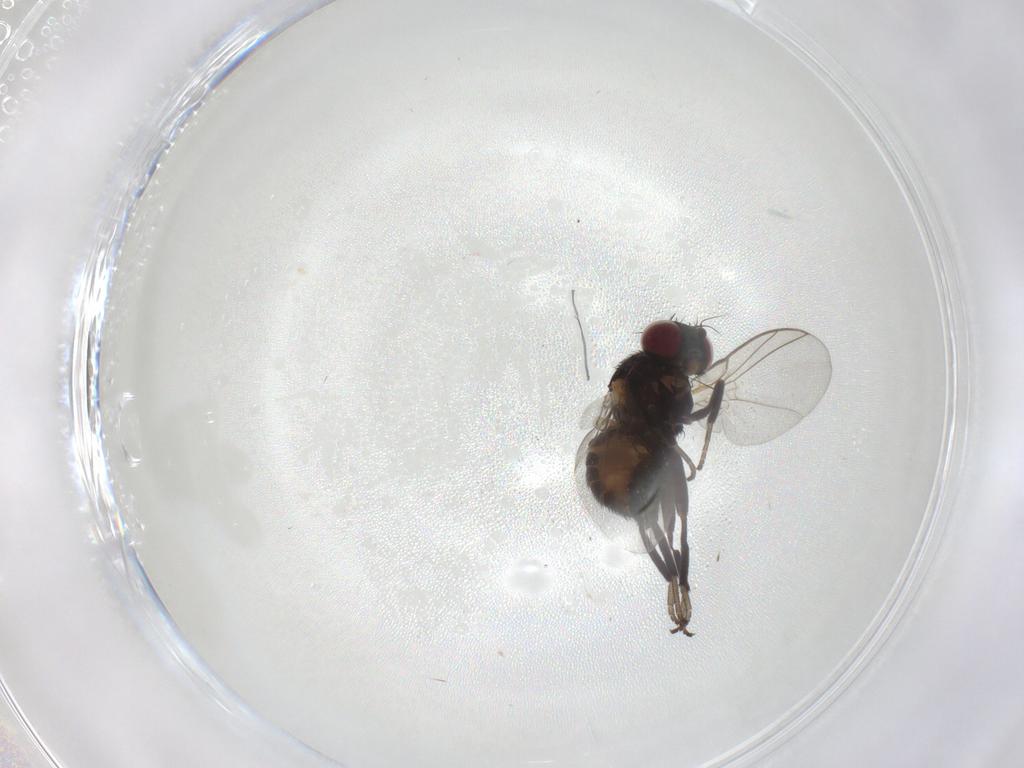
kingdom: Animalia
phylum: Arthropoda
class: Insecta
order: Diptera
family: Agromyzidae
